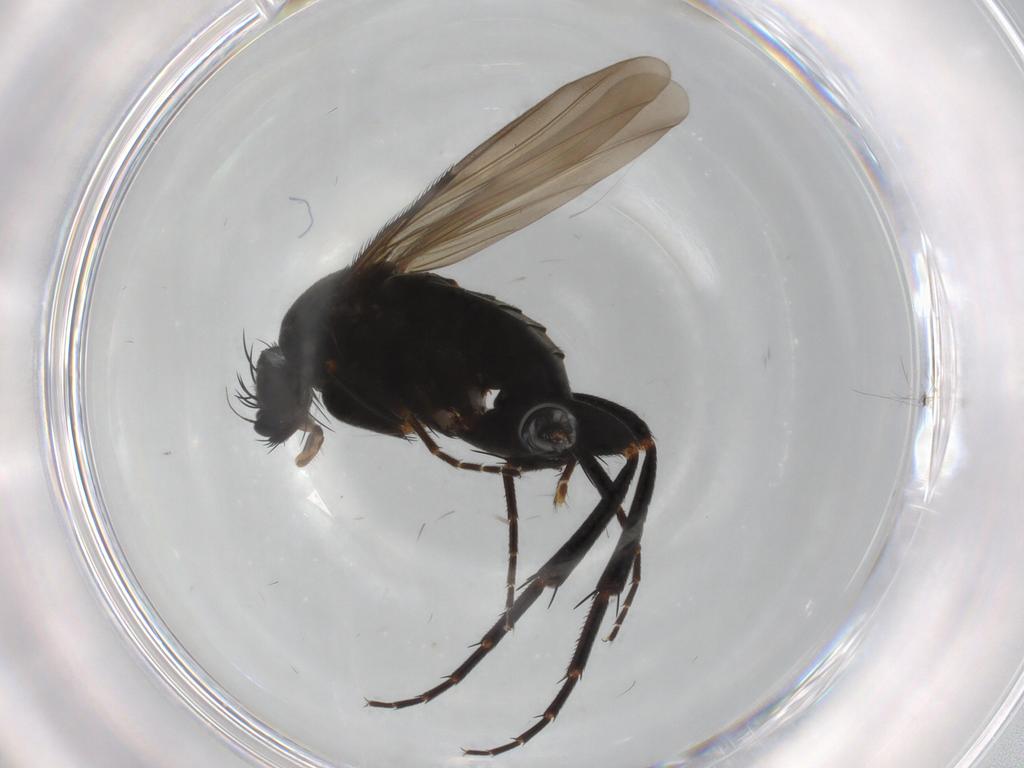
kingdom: Animalia
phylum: Arthropoda
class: Insecta
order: Diptera
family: Phoridae
